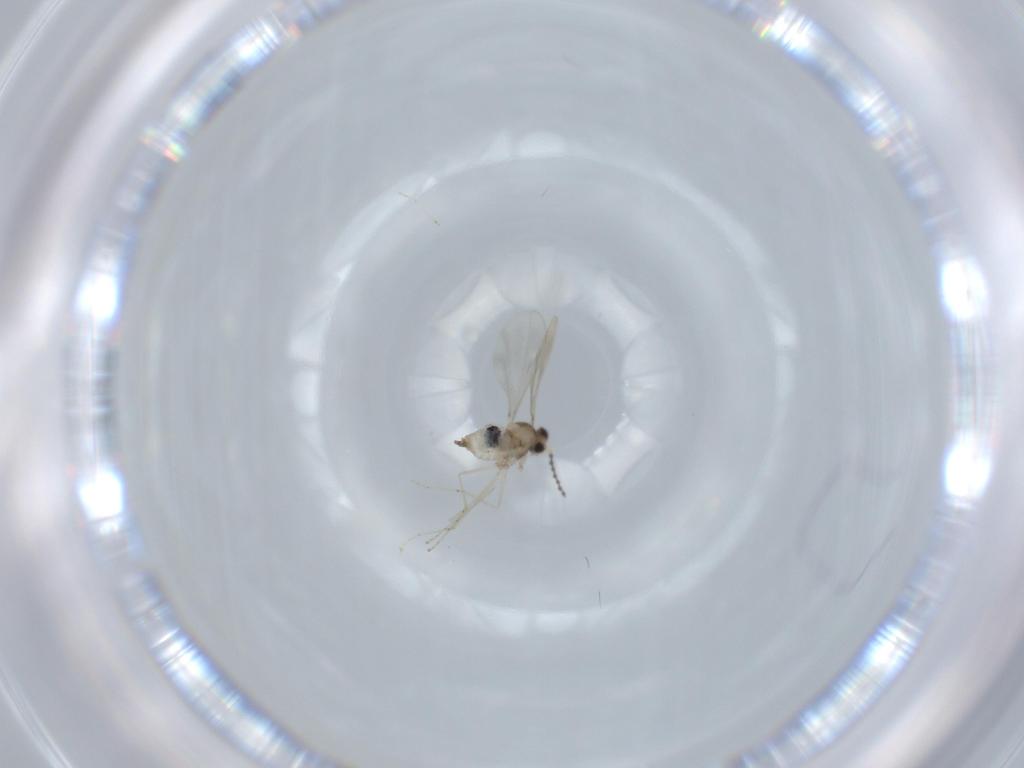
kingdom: Animalia
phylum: Arthropoda
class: Insecta
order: Diptera
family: Cecidomyiidae
